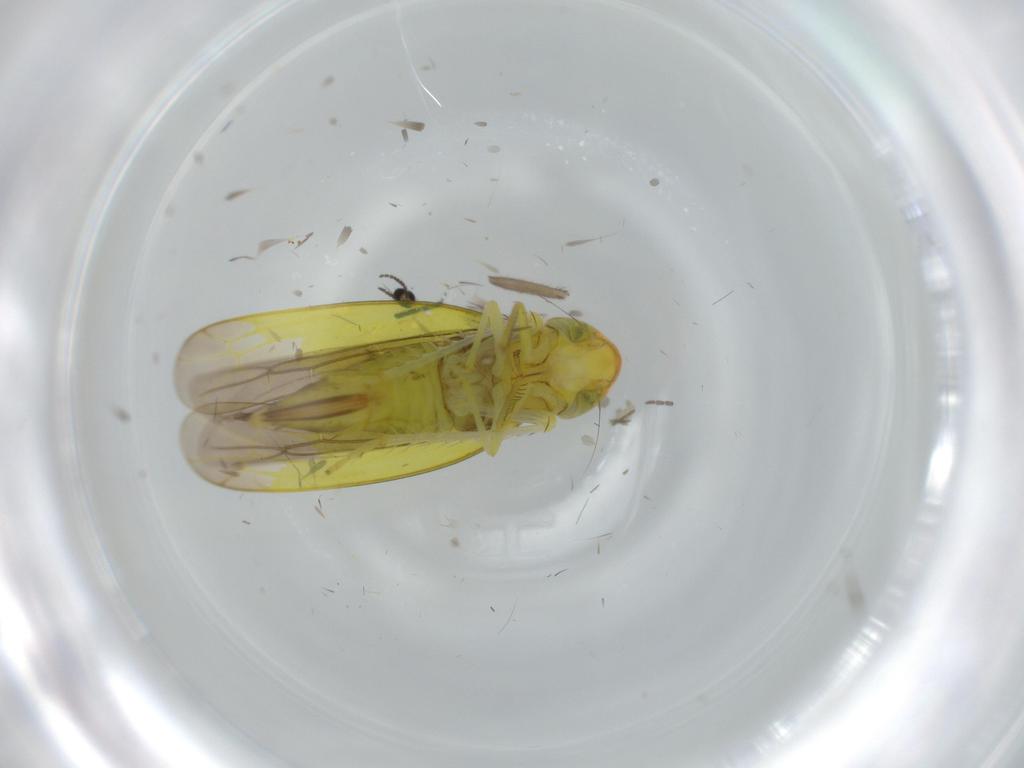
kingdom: Animalia
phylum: Arthropoda
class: Insecta
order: Hemiptera
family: Cicadellidae
